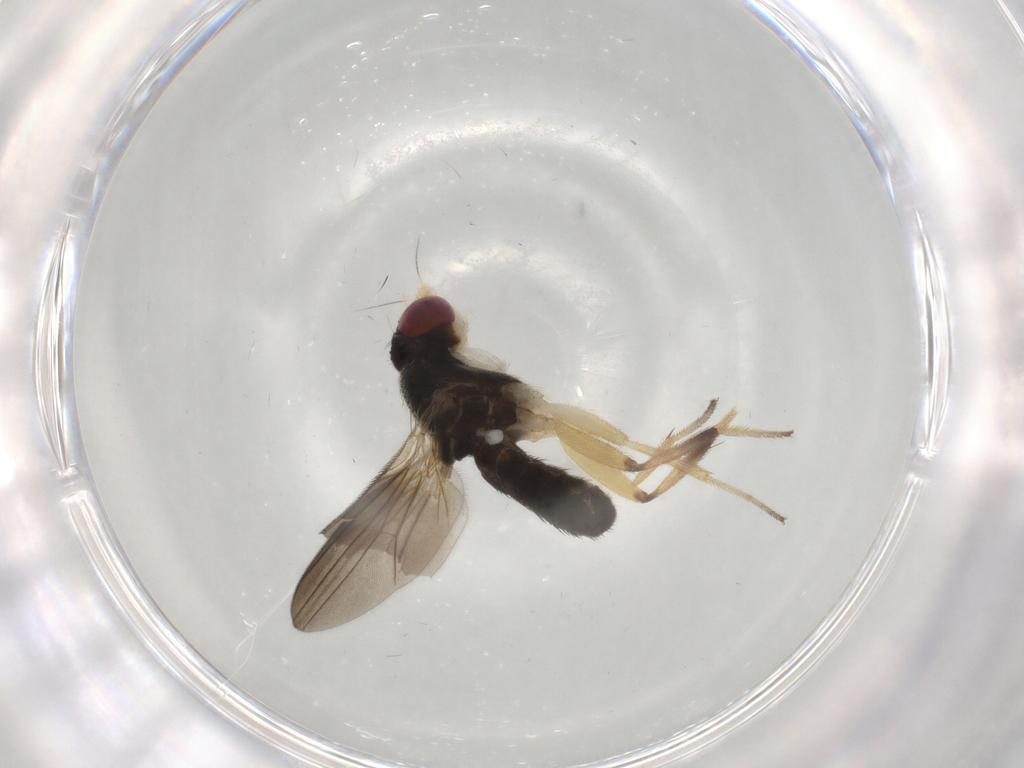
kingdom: Animalia
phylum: Arthropoda
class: Insecta
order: Diptera
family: Clusiidae
